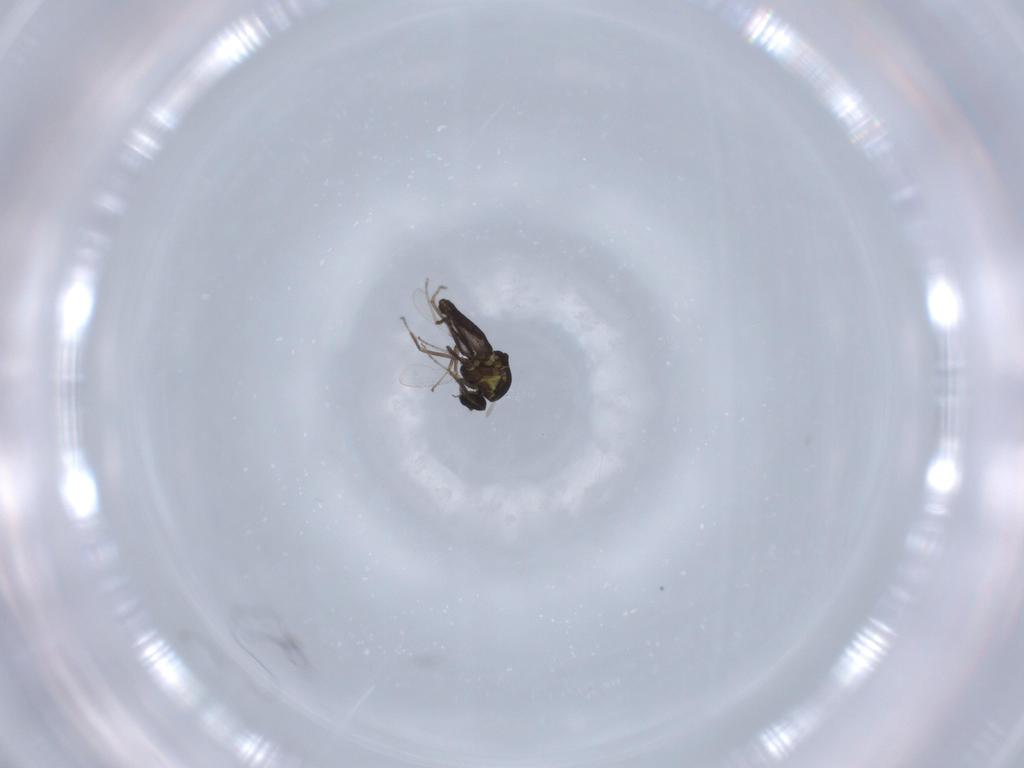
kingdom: Animalia
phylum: Arthropoda
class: Insecta
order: Diptera
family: Ceratopogonidae
